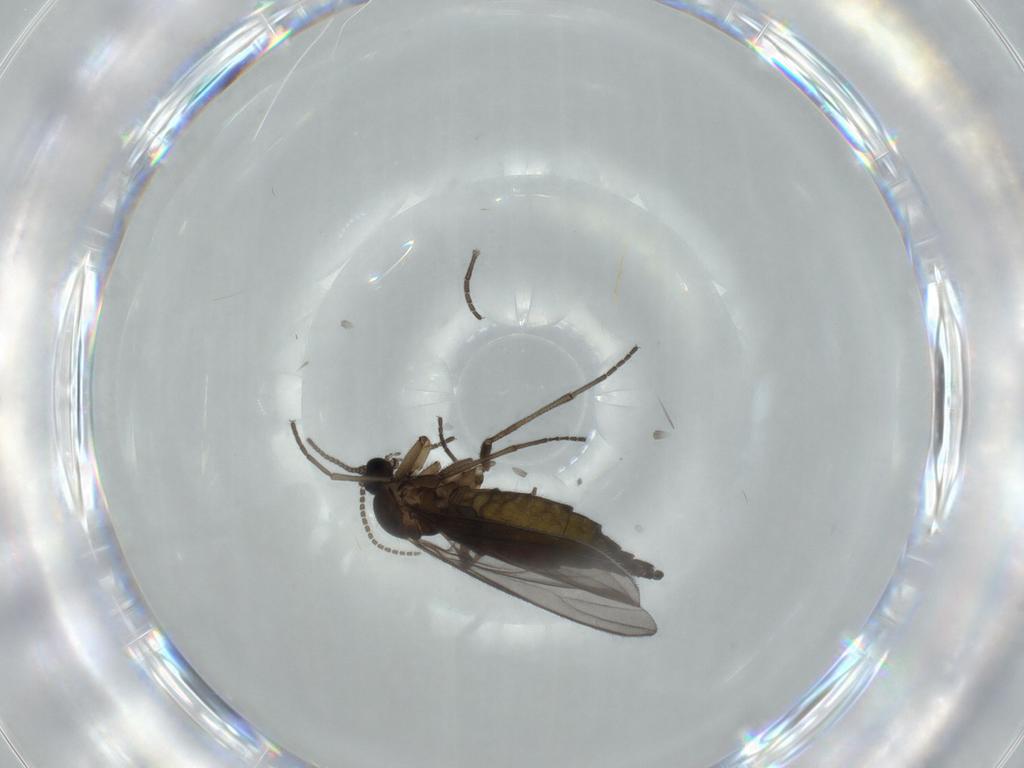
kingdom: Animalia
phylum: Arthropoda
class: Insecta
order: Diptera
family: Sciaridae
